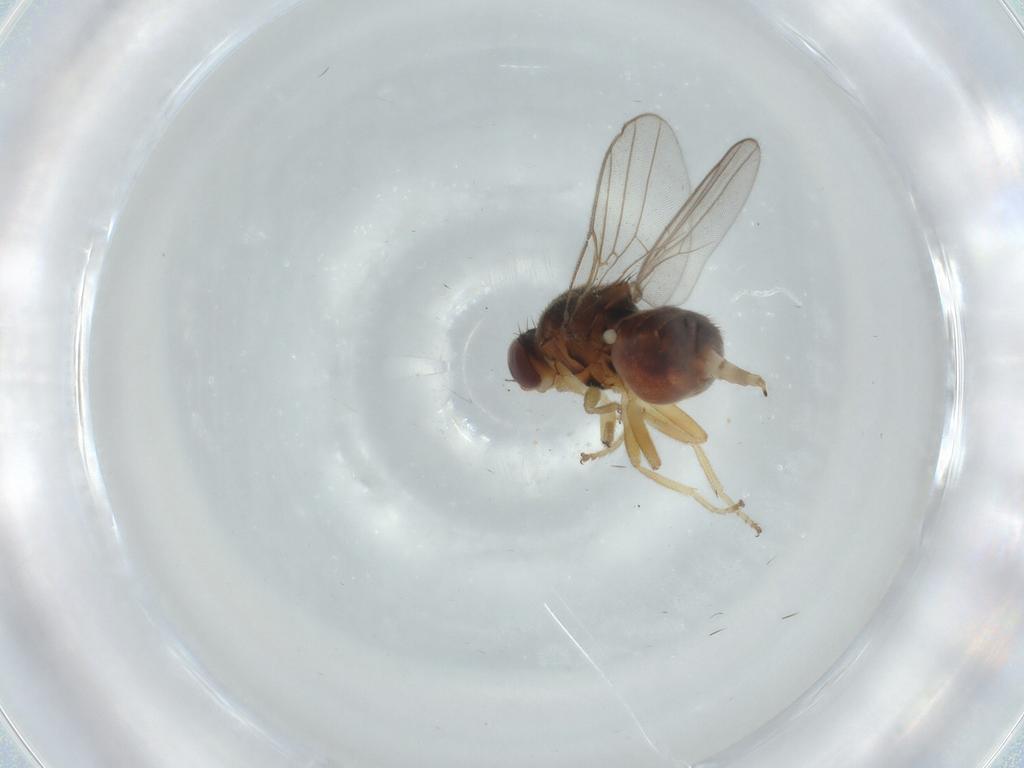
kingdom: Animalia
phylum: Arthropoda
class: Insecta
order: Diptera
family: Chloropidae
